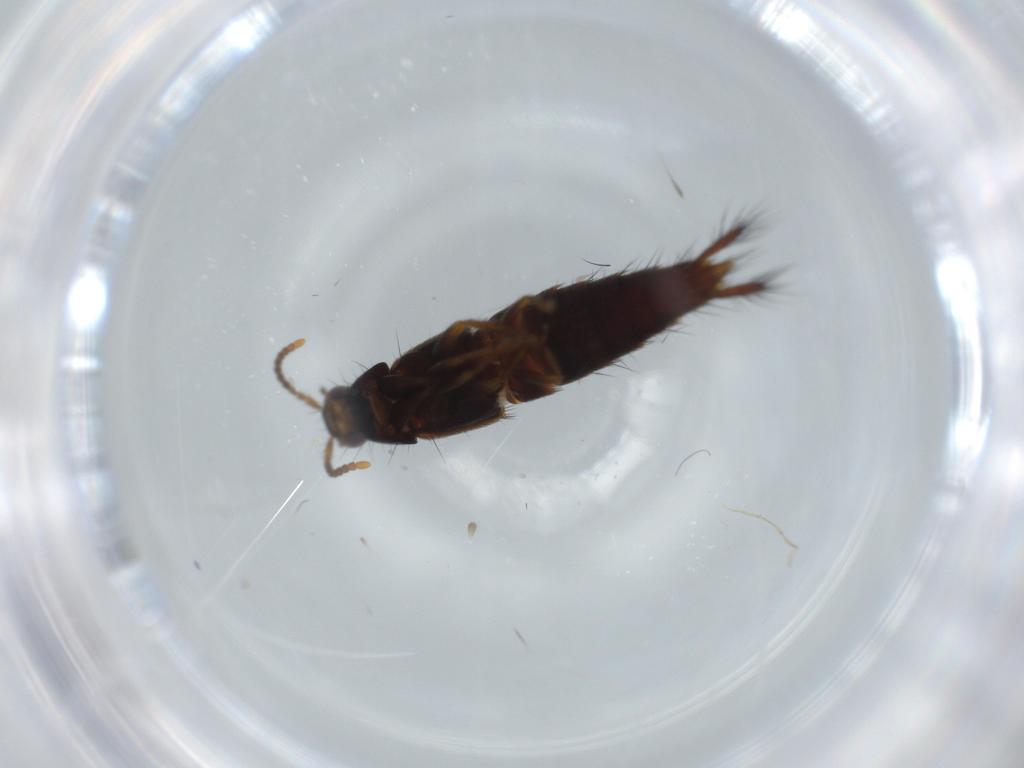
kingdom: Animalia
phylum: Arthropoda
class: Insecta
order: Coleoptera
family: Staphylinidae
